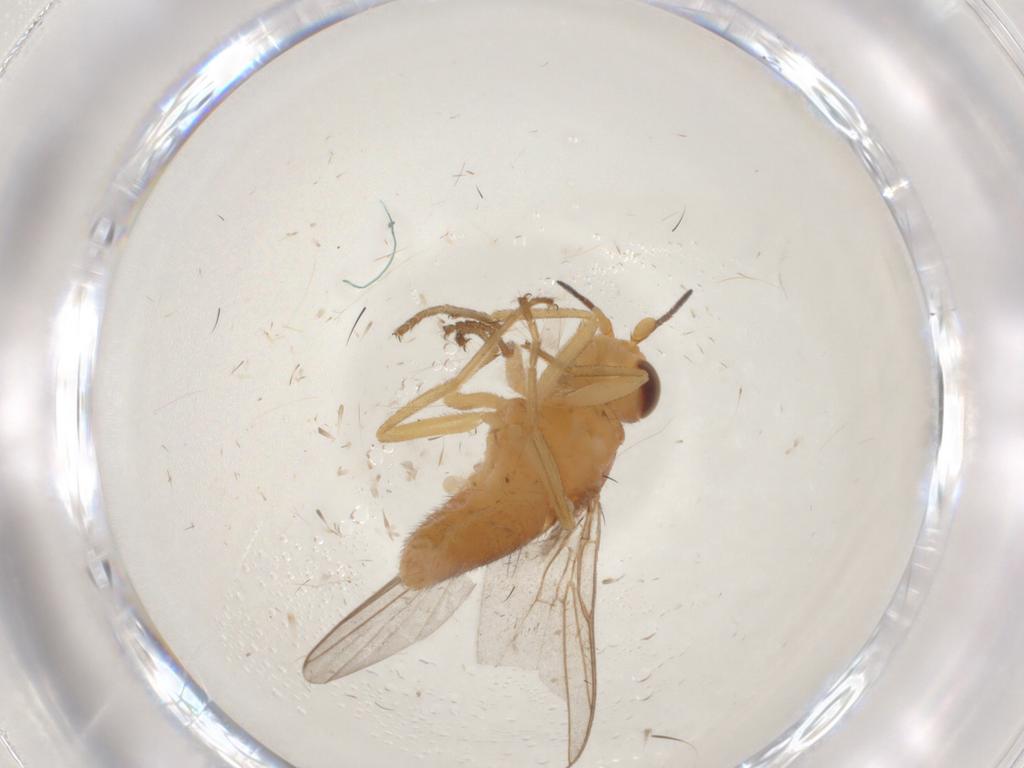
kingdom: Animalia
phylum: Arthropoda
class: Insecta
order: Diptera
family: Chloropidae
